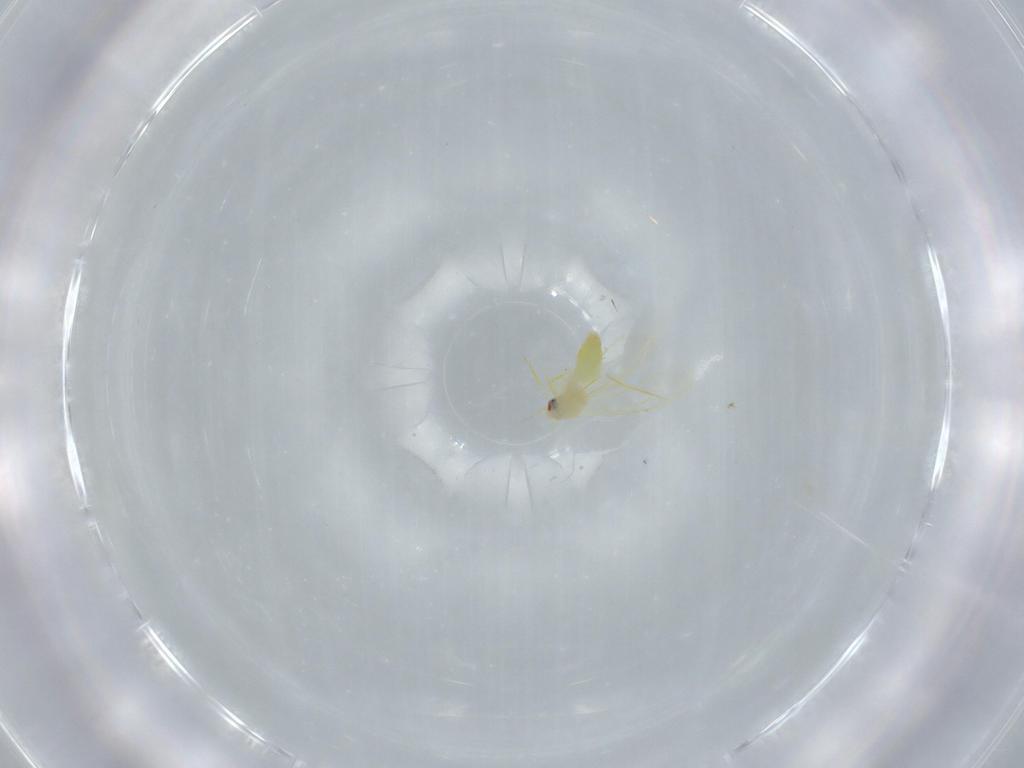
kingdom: Animalia
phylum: Arthropoda
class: Insecta
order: Hemiptera
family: Aleyrodidae
